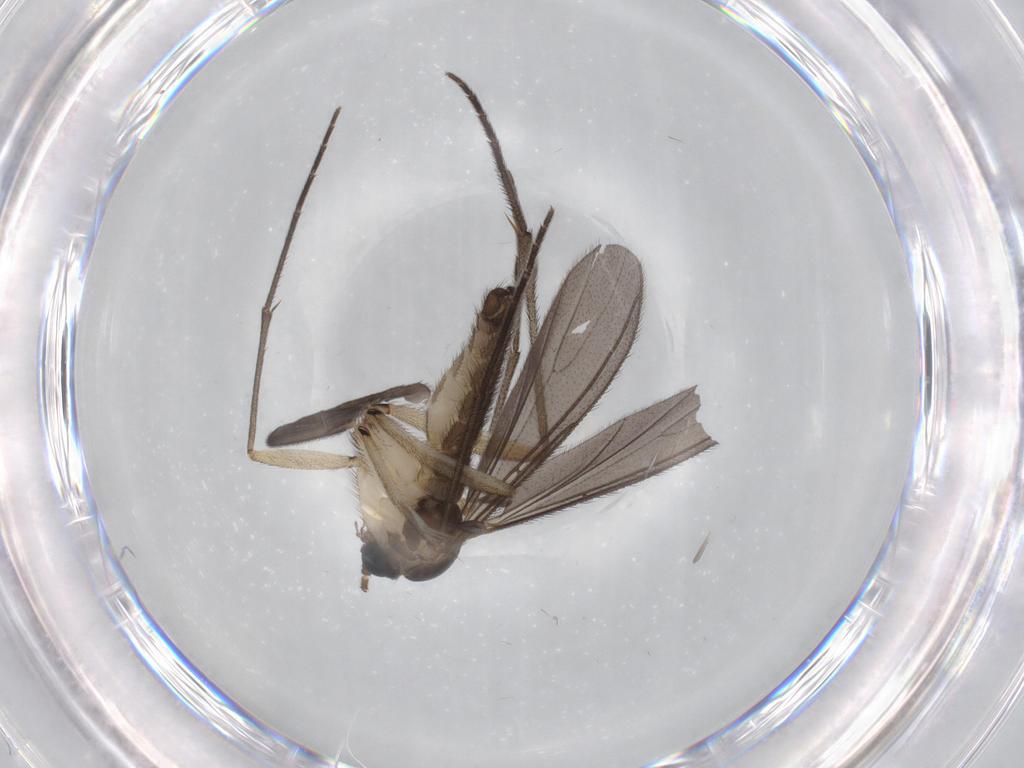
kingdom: Animalia
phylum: Arthropoda
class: Insecta
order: Diptera
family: Sciaridae
